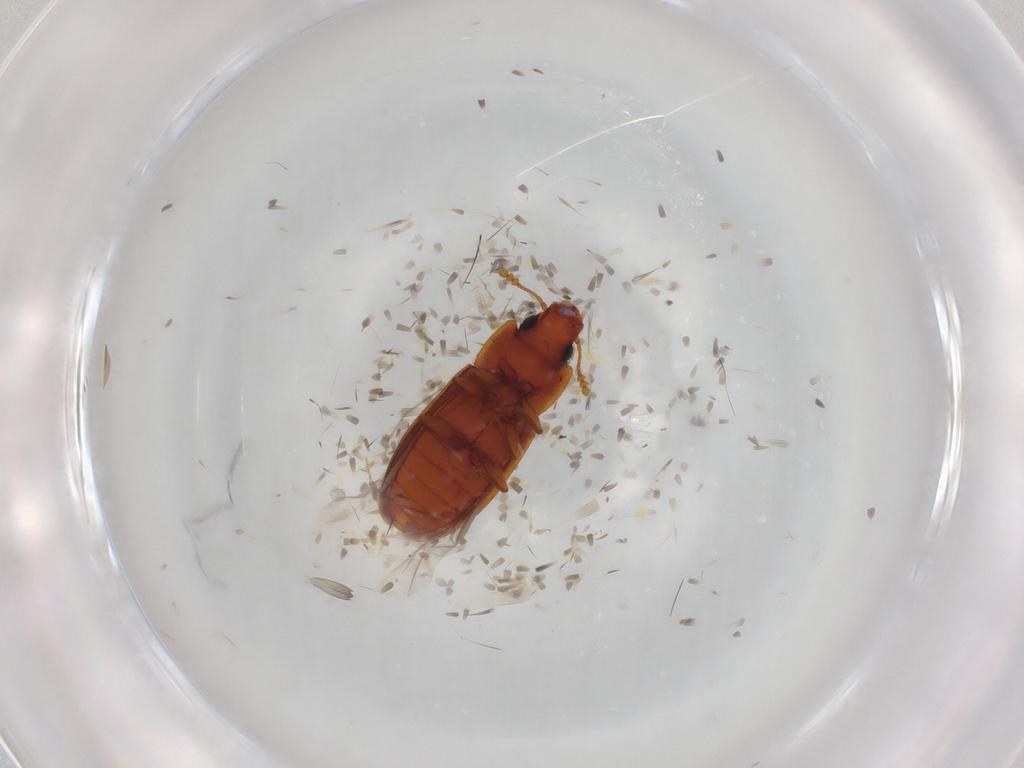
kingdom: Animalia
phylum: Arthropoda
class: Insecta
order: Coleoptera
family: Laemophloeidae
